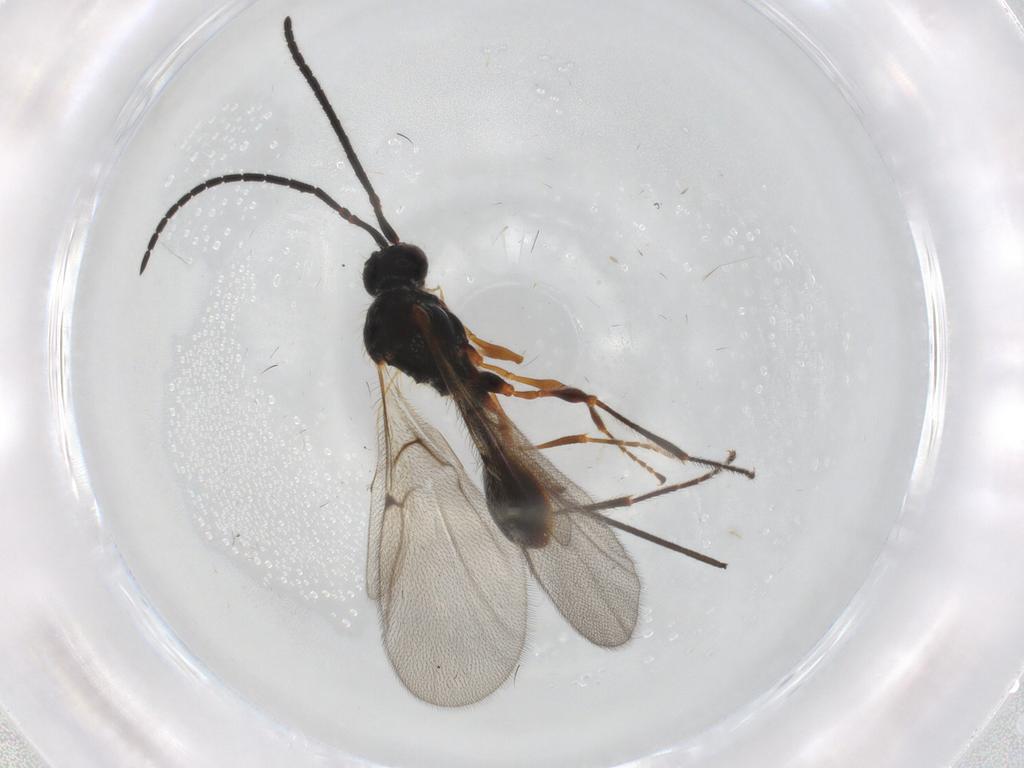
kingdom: Animalia
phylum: Arthropoda
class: Insecta
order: Hymenoptera
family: Diapriidae
